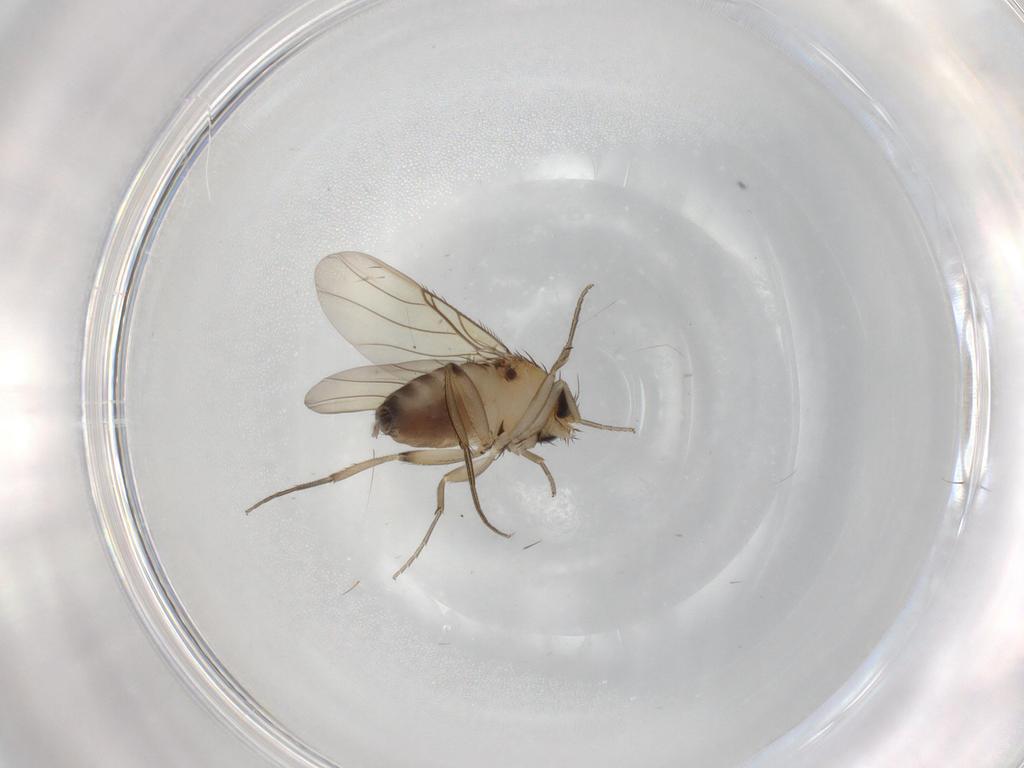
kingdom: Animalia
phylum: Arthropoda
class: Insecta
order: Diptera
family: Phoridae
